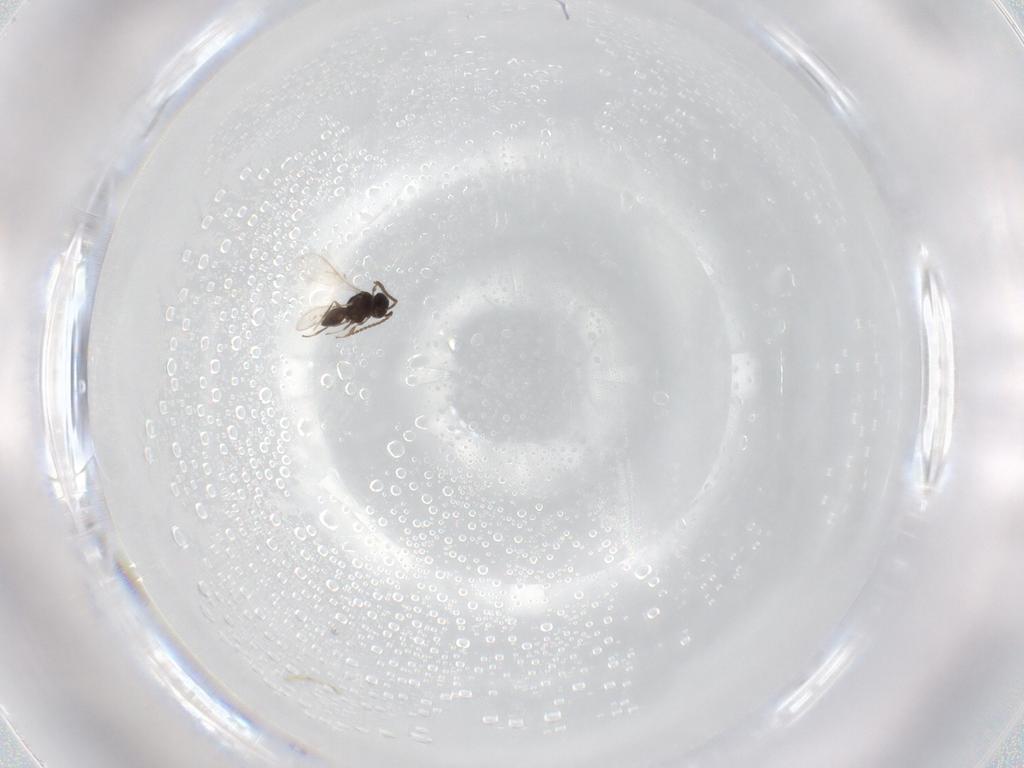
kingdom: Animalia
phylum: Arthropoda
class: Insecta
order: Hymenoptera
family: Scelionidae
